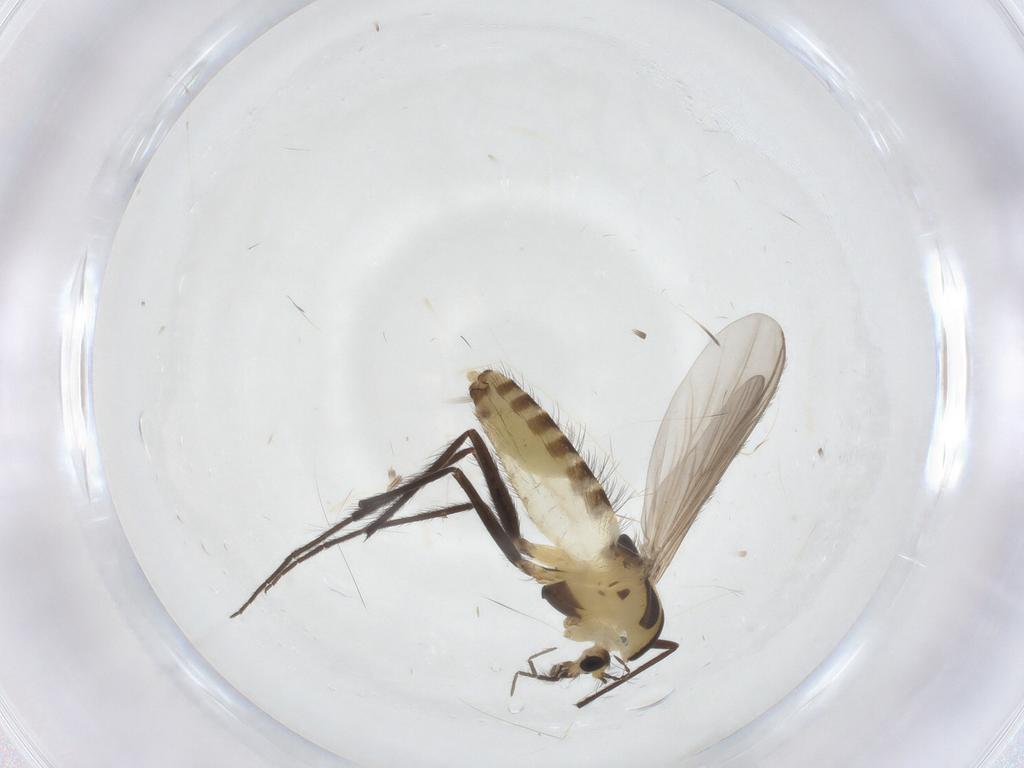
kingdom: Animalia
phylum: Arthropoda
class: Insecta
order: Diptera
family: Chironomidae
